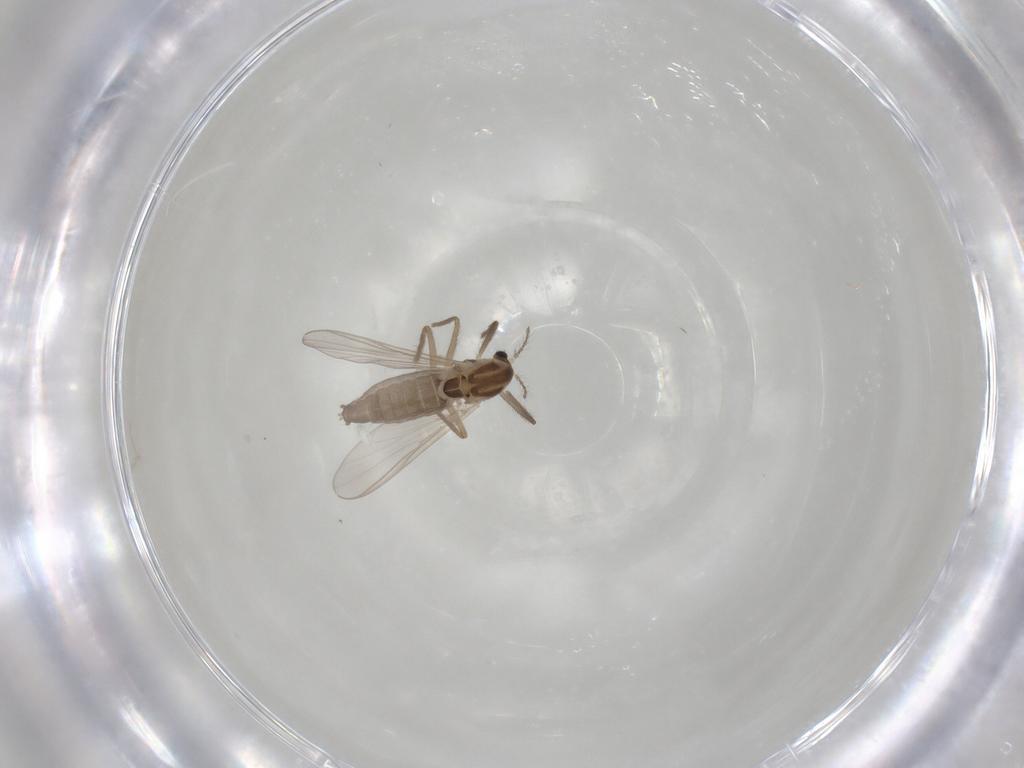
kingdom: Animalia
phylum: Arthropoda
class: Insecta
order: Diptera
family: Chironomidae
